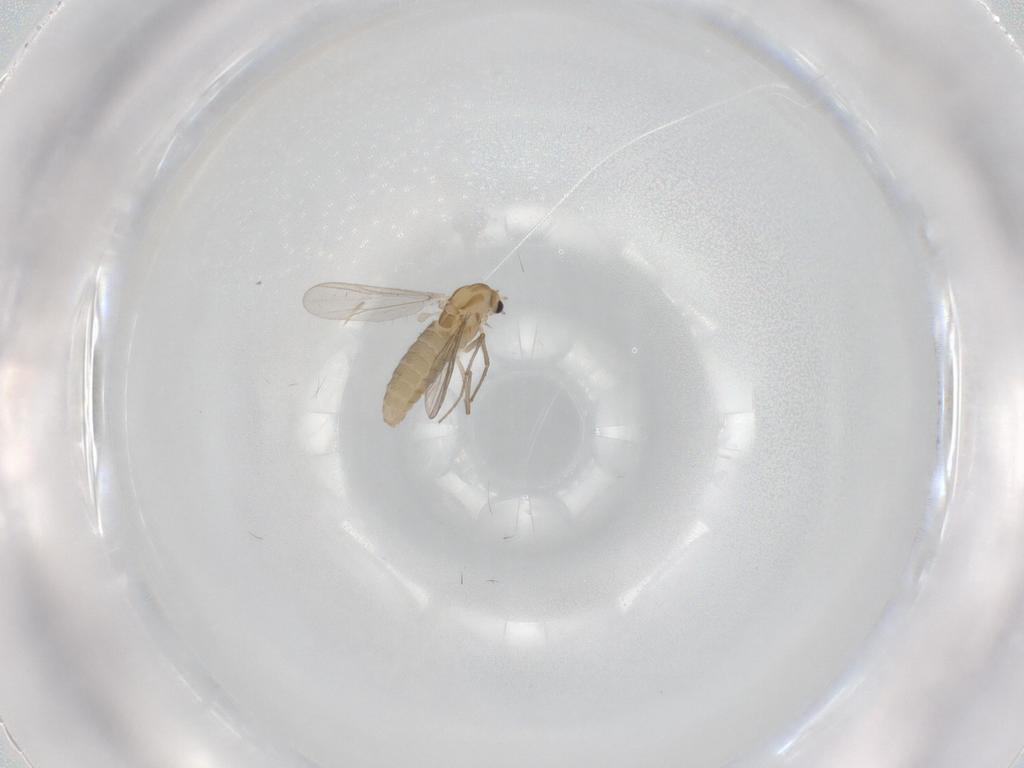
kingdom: Animalia
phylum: Arthropoda
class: Insecta
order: Diptera
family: Chironomidae
